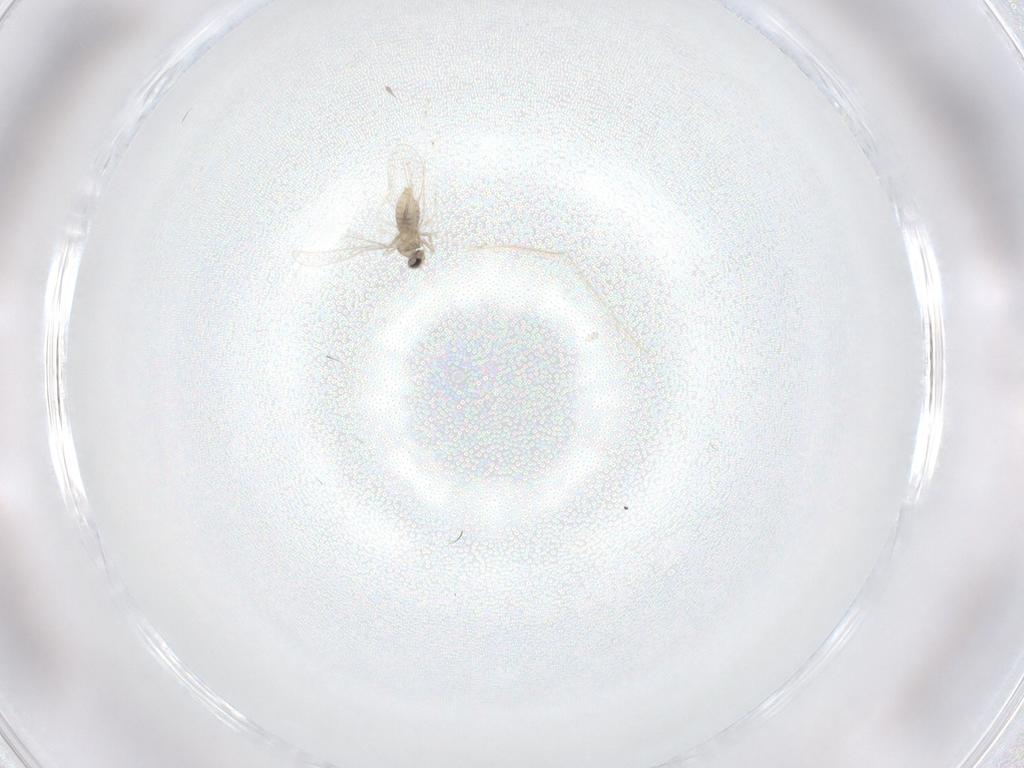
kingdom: Animalia
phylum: Arthropoda
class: Insecta
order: Diptera
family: Cecidomyiidae
